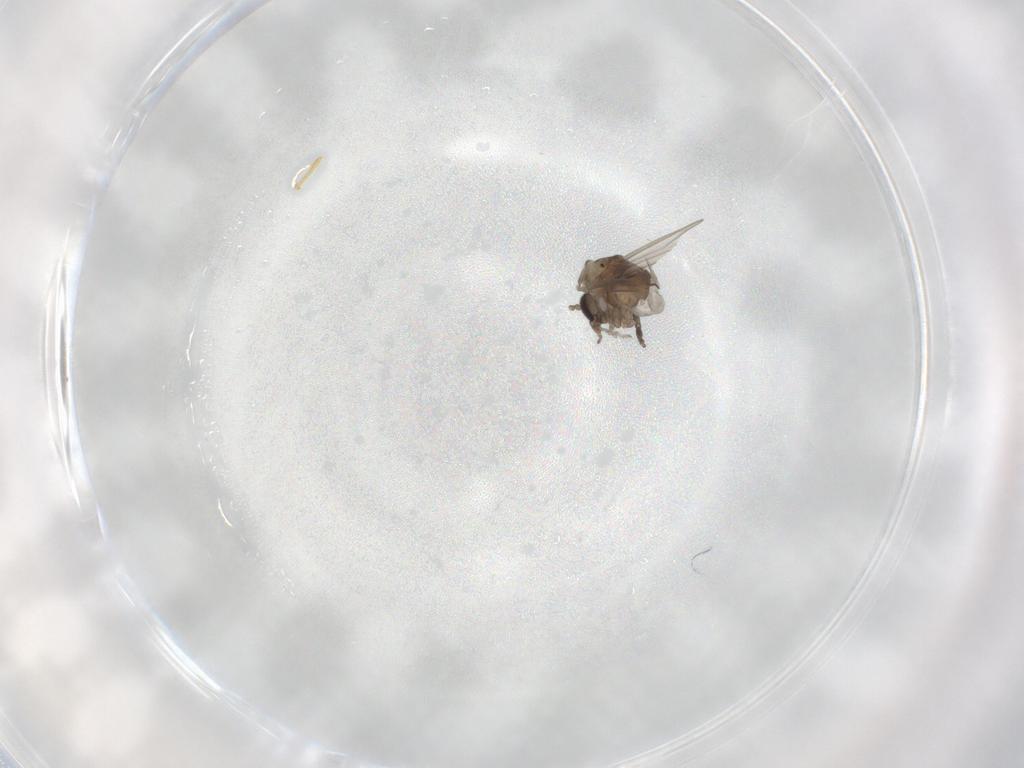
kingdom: Animalia
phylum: Arthropoda
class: Insecta
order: Diptera
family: Psychodidae
